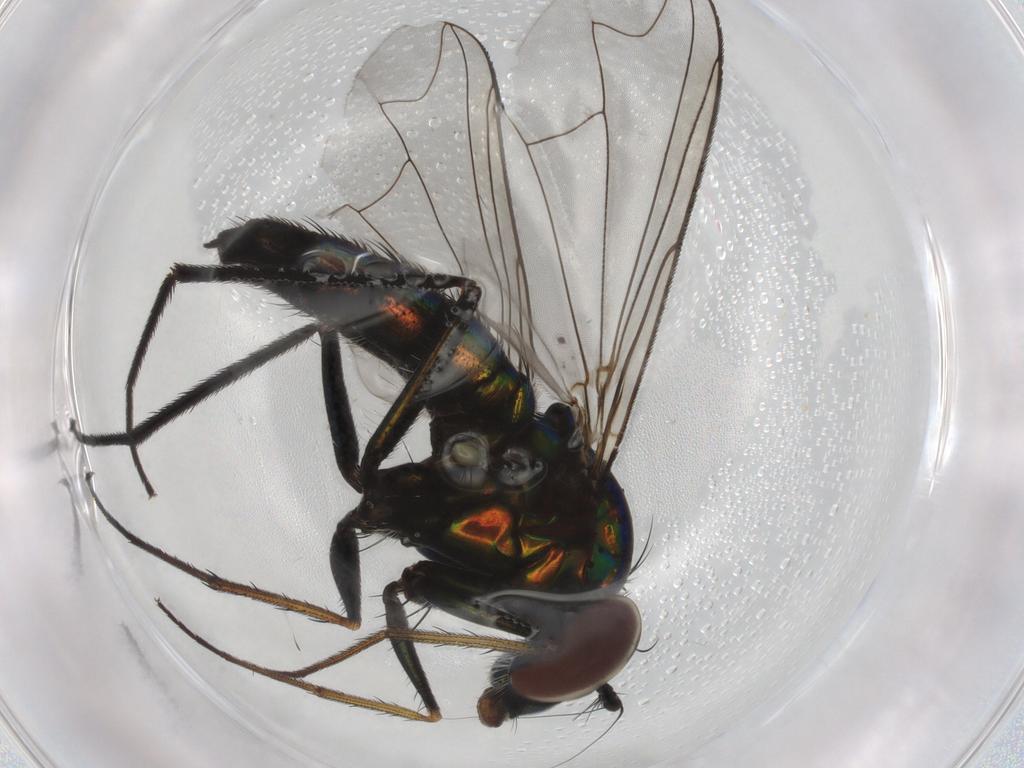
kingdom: Animalia
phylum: Arthropoda
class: Insecta
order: Diptera
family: Dolichopodidae
